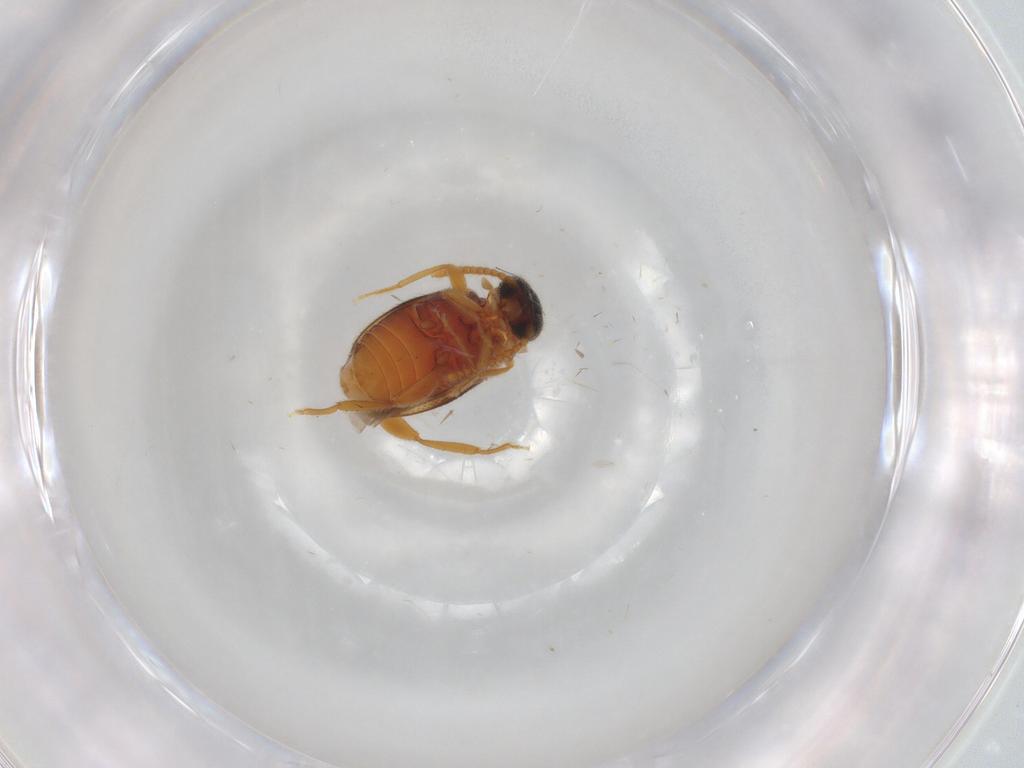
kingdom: Animalia
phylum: Arthropoda
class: Insecta
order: Coleoptera
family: Aderidae
